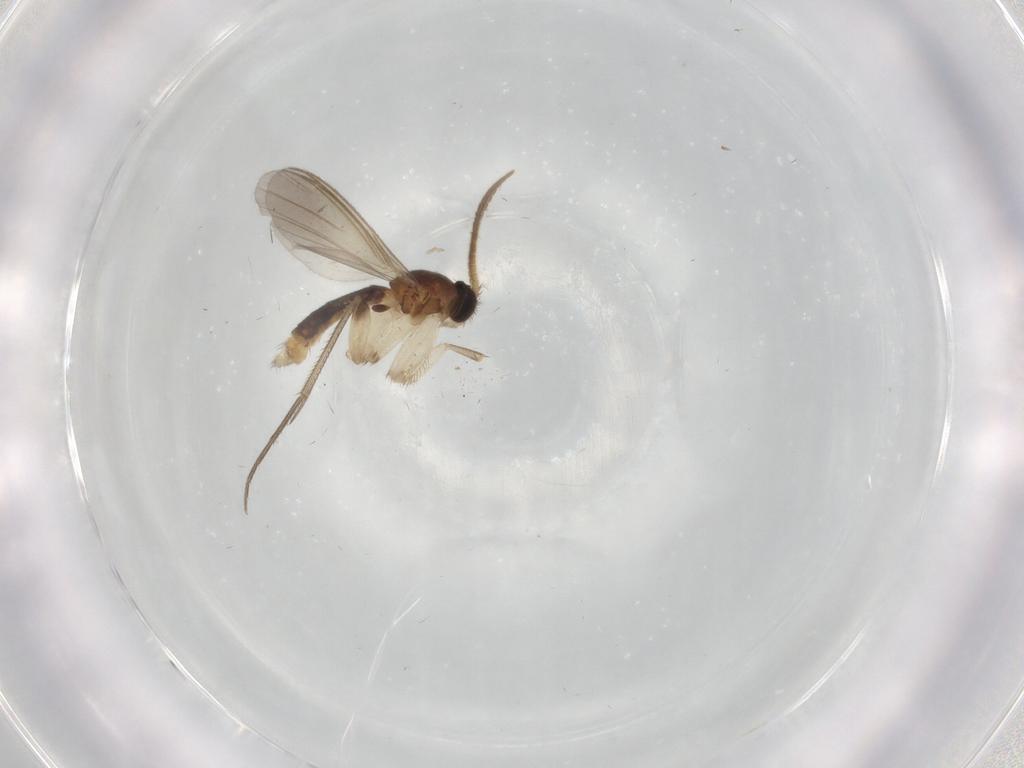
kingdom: Animalia
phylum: Arthropoda
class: Insecta
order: Diptera
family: Mycetophilidae
